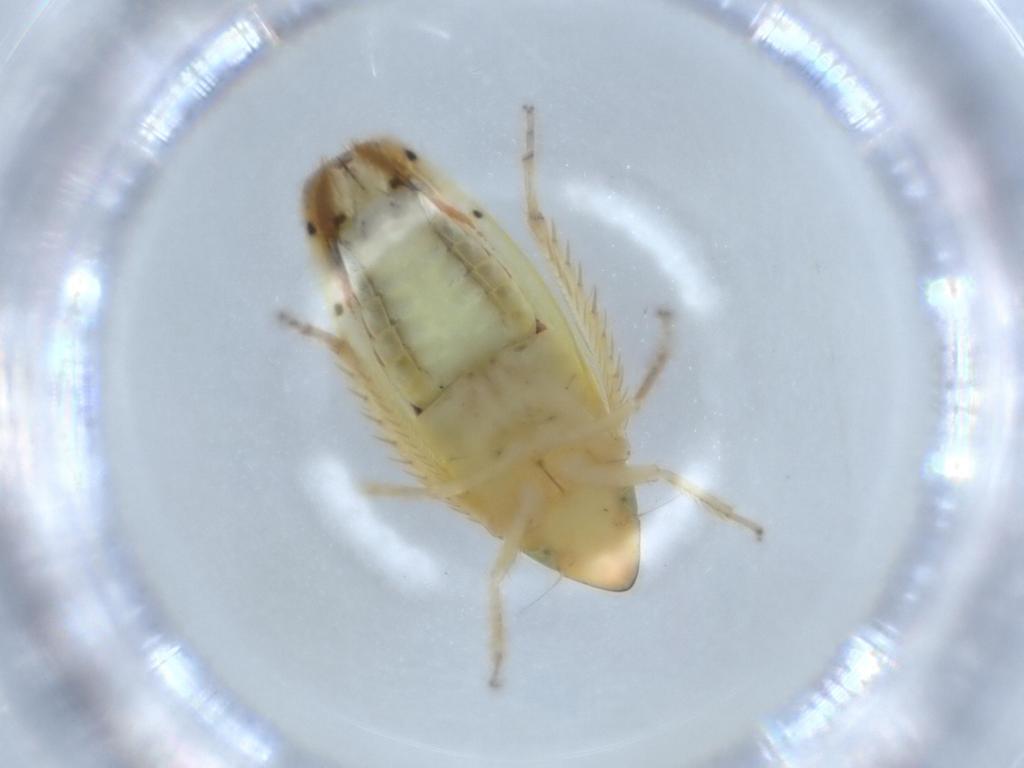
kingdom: Animalia
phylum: Arthropoda
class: Insecta
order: Hemiptera
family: Cicadellidae
